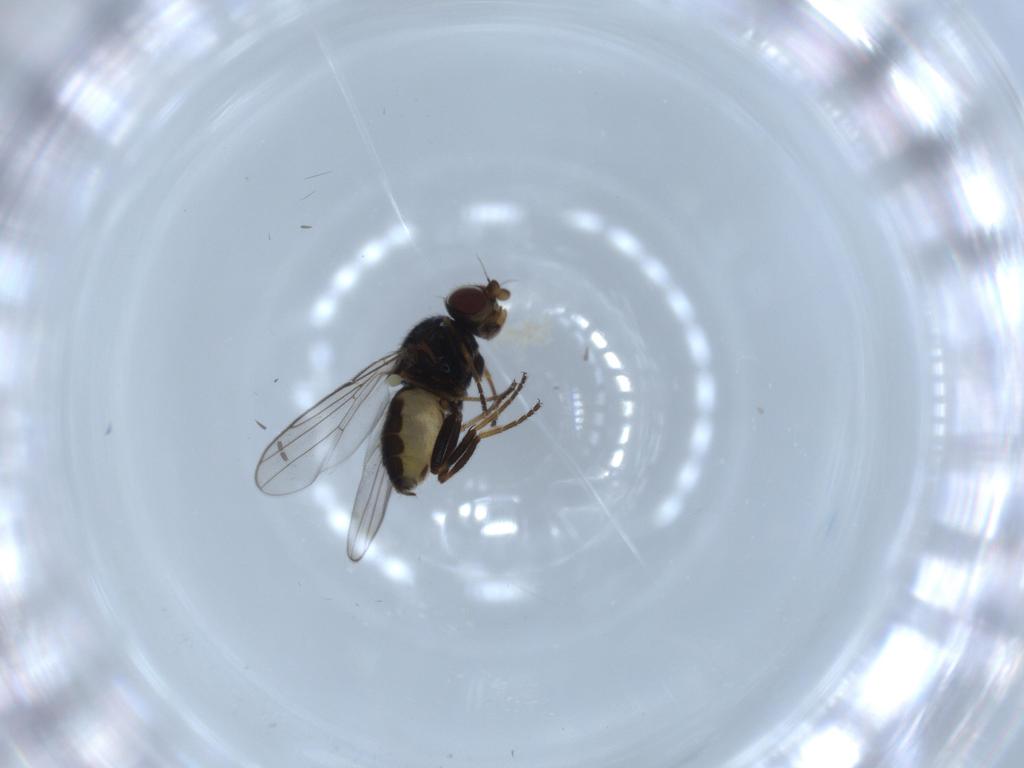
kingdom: Animalia
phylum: Arthropoda
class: Insecta
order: Diptera
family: Chloropidae
